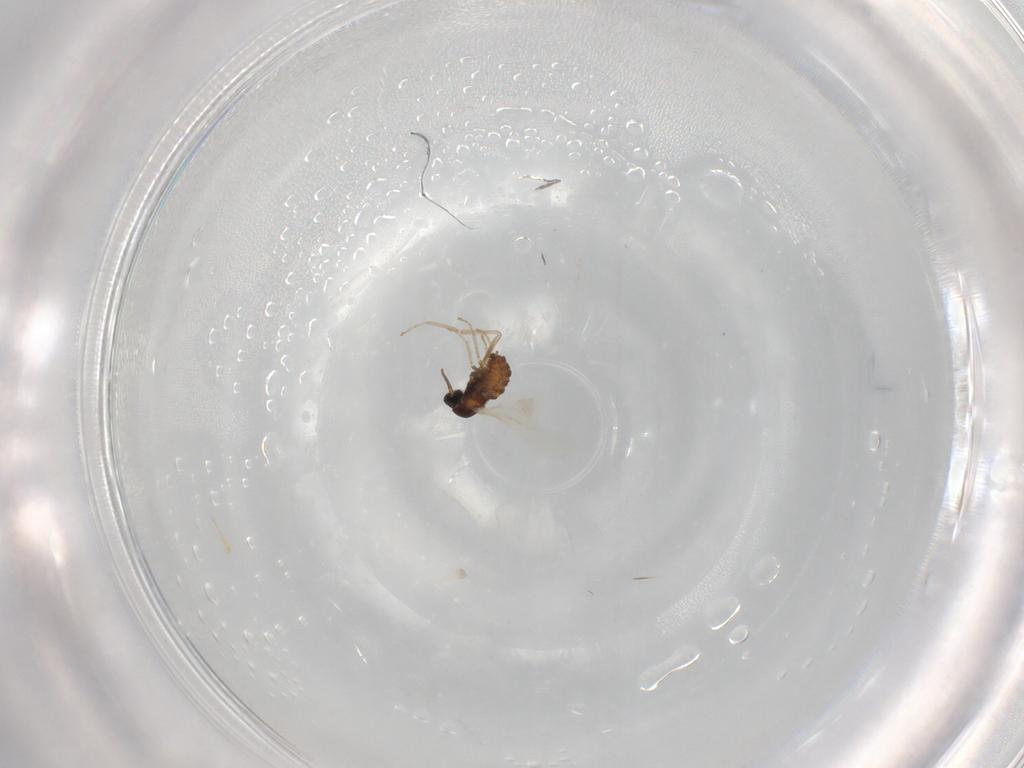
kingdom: Animalia
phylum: Arthropoda
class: Insecta
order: Diptera
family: Cecidomyiidae
